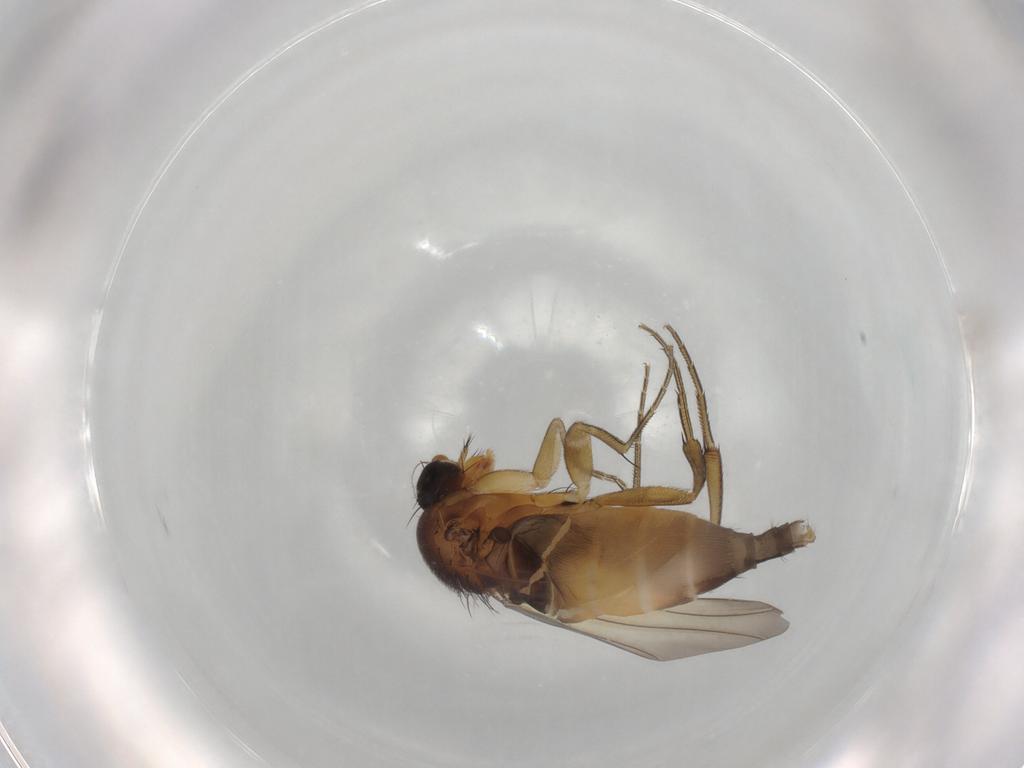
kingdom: Animalia
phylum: Arthropoda
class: Insecta
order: Diptera
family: Phoridae
